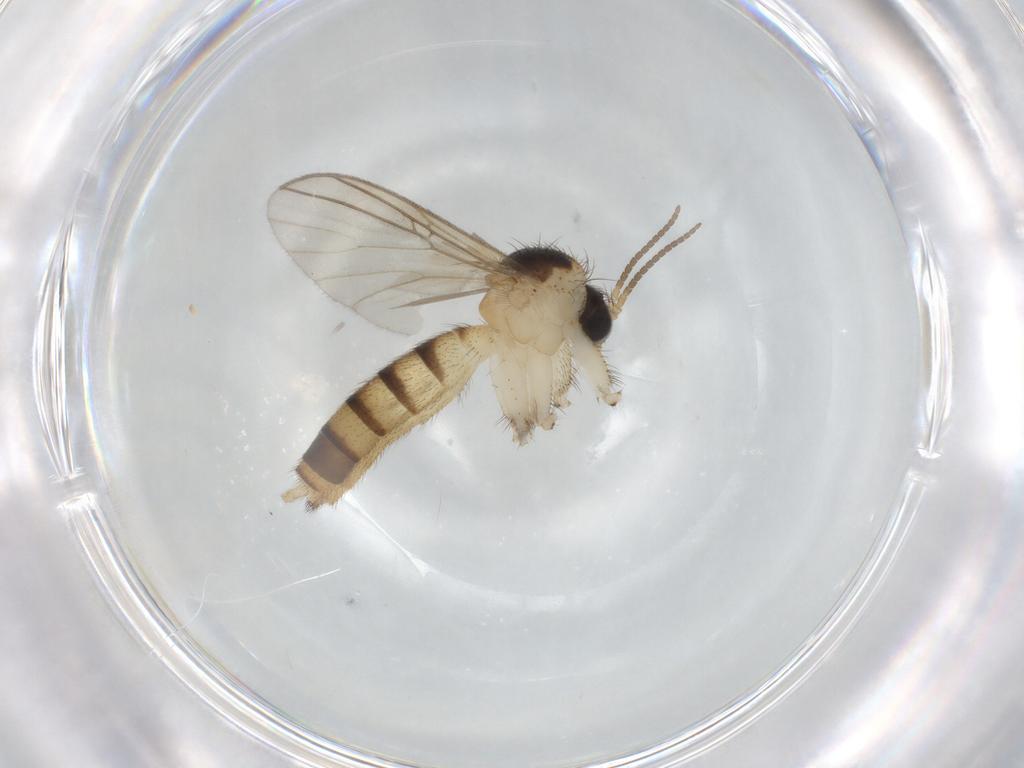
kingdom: Animalia
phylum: Arthropoda
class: Insecta
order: Diptera
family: Mycetophilidae
